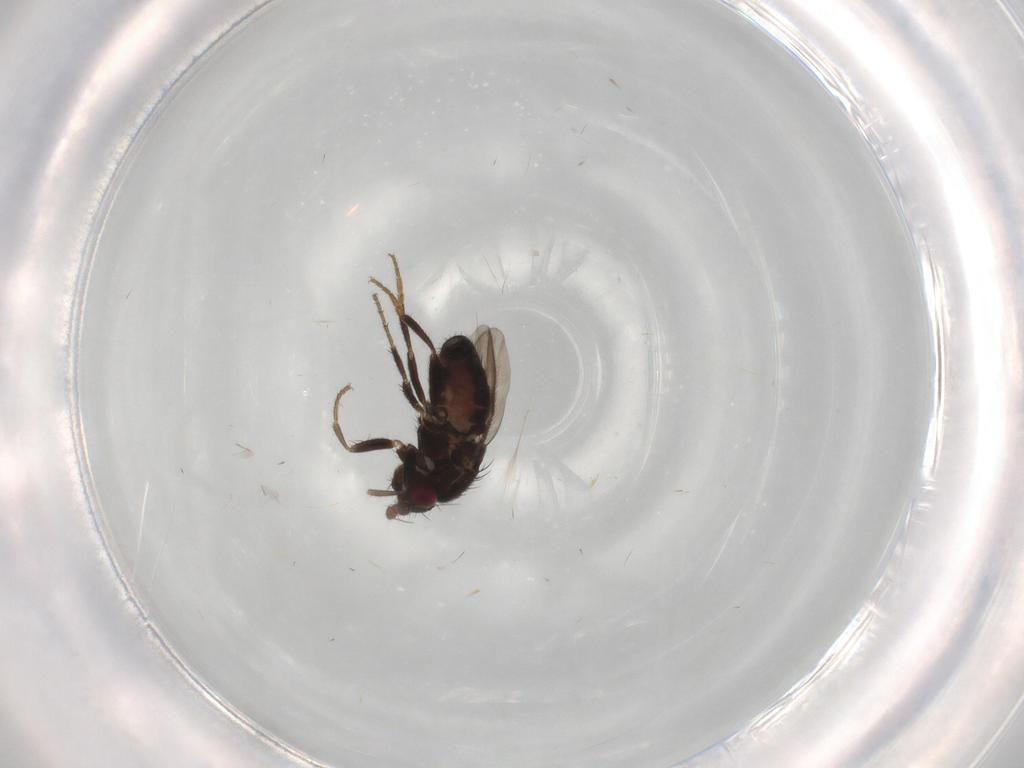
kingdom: Animalia
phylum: Arthropoda
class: Insecta
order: Diptera
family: Sphaeroceridae
